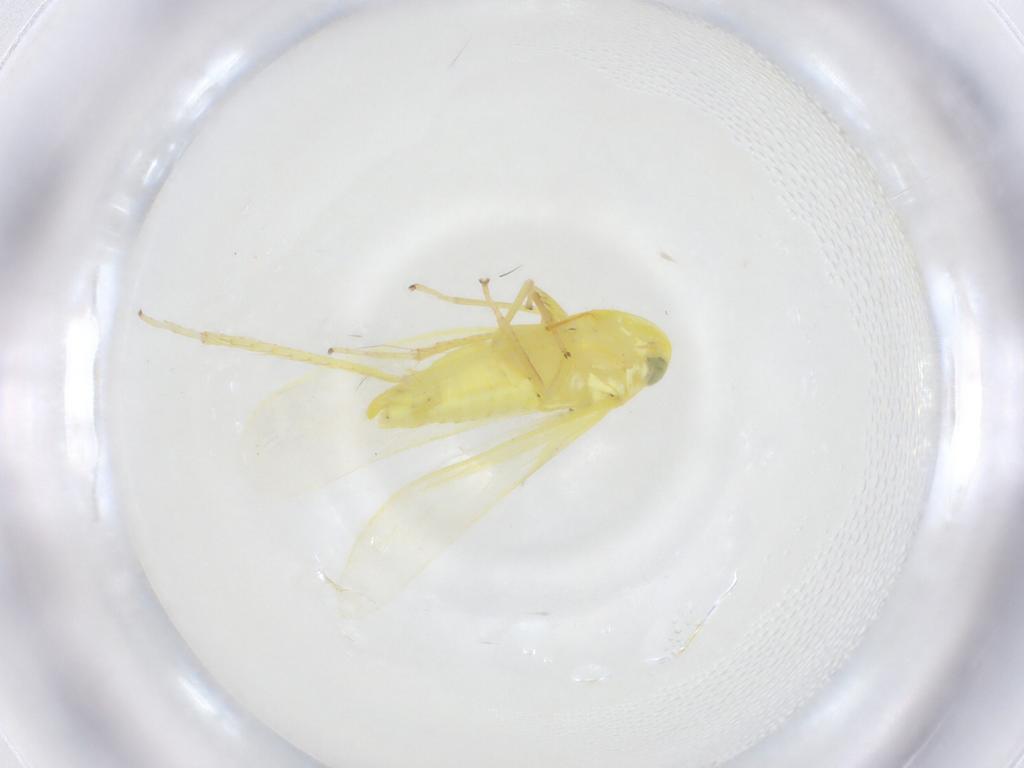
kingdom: Animalia
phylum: Arthropoda
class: Insecta
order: Hemiptera
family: Cicadellidae
